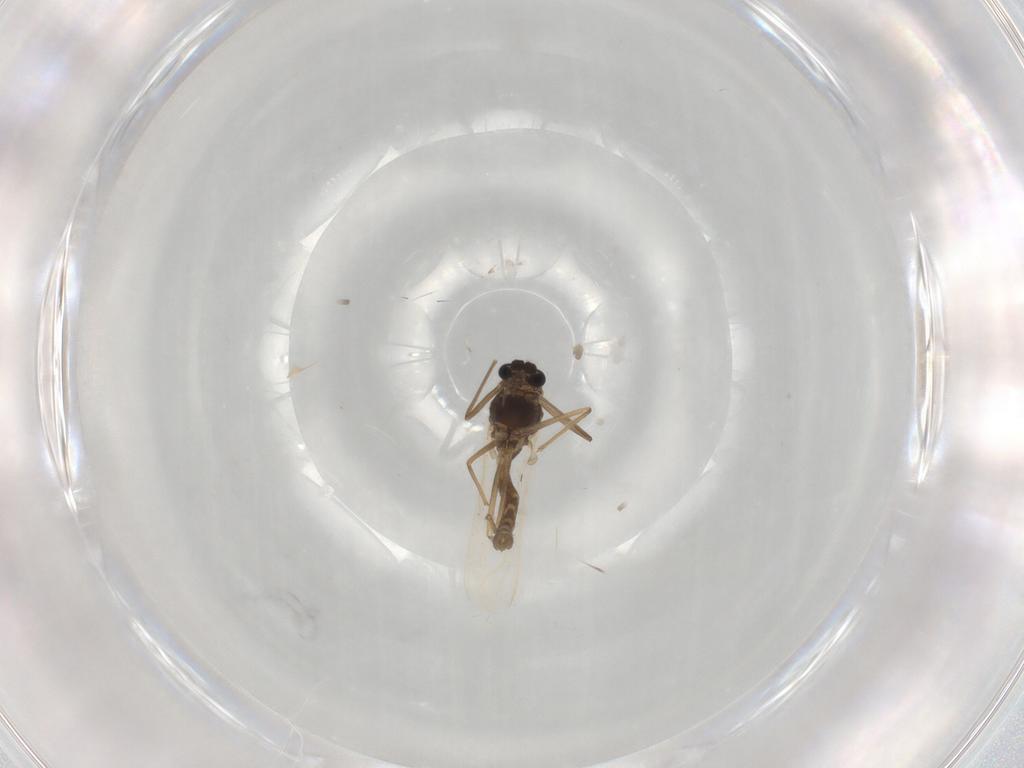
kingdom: Animalia
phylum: Arthropoda
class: Insecta
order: Diptera
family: Chironomidae
